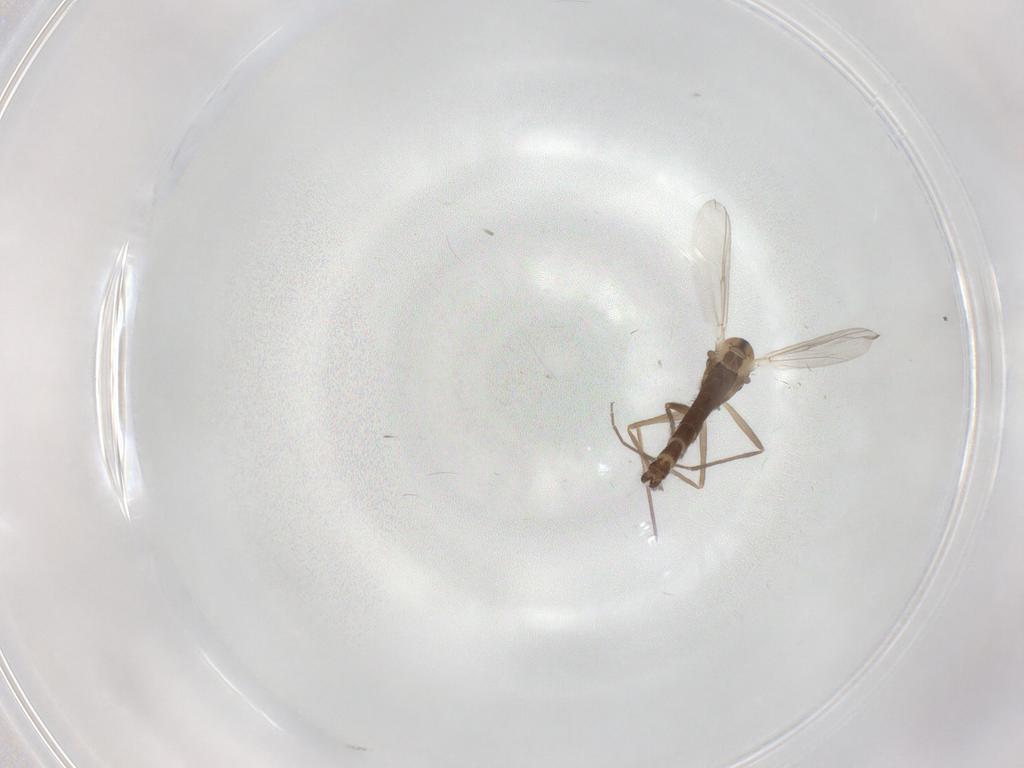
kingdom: Animalia
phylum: Arthropoda
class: Insecta
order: Diptera
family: Chironomidae
